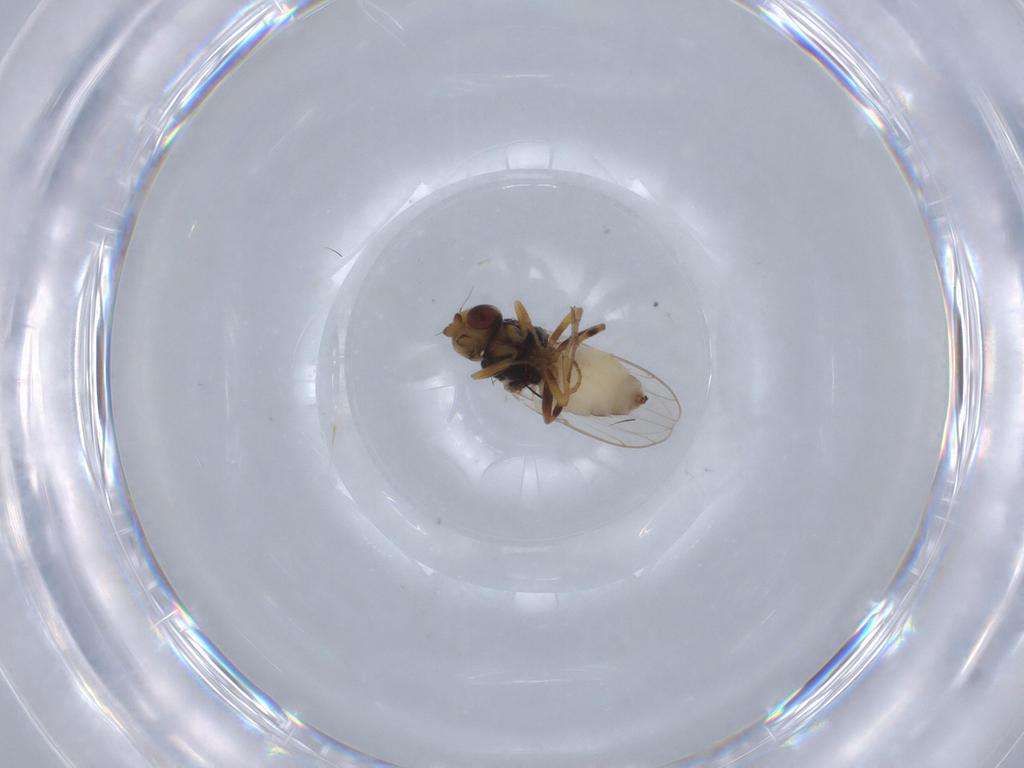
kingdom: Animalia
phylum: Arthropoda
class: Insecta
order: Diptera
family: Chloropidae
